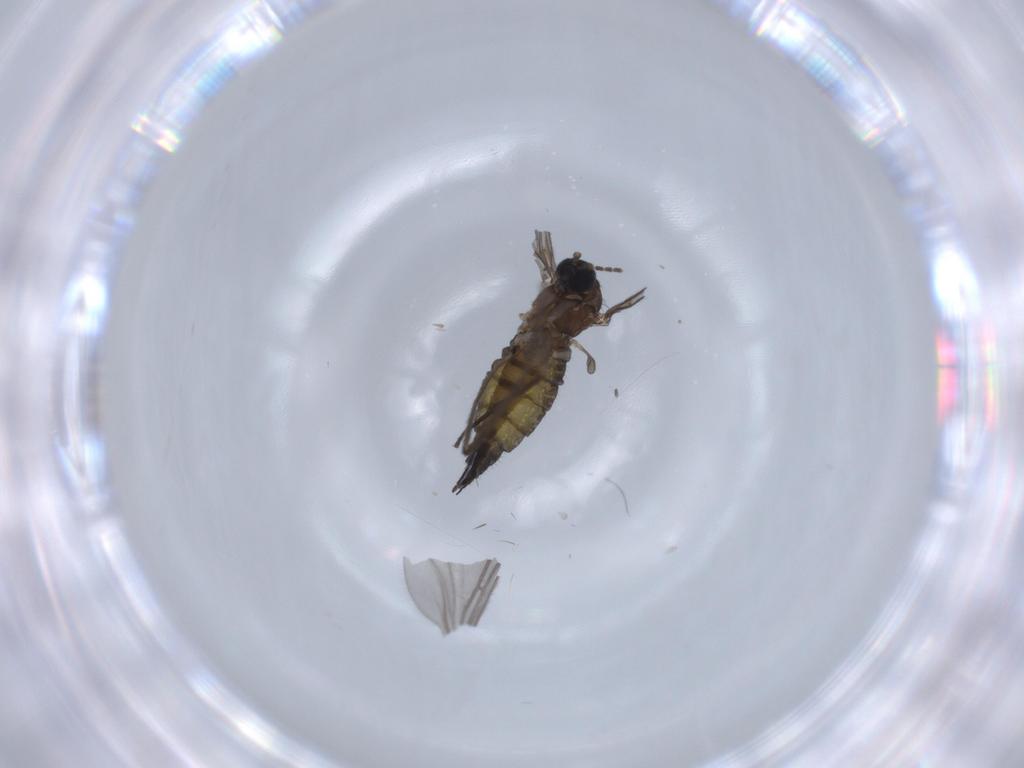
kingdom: Animalia
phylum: Arthropoda
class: Insecta
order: Diptera
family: Sciaridae
